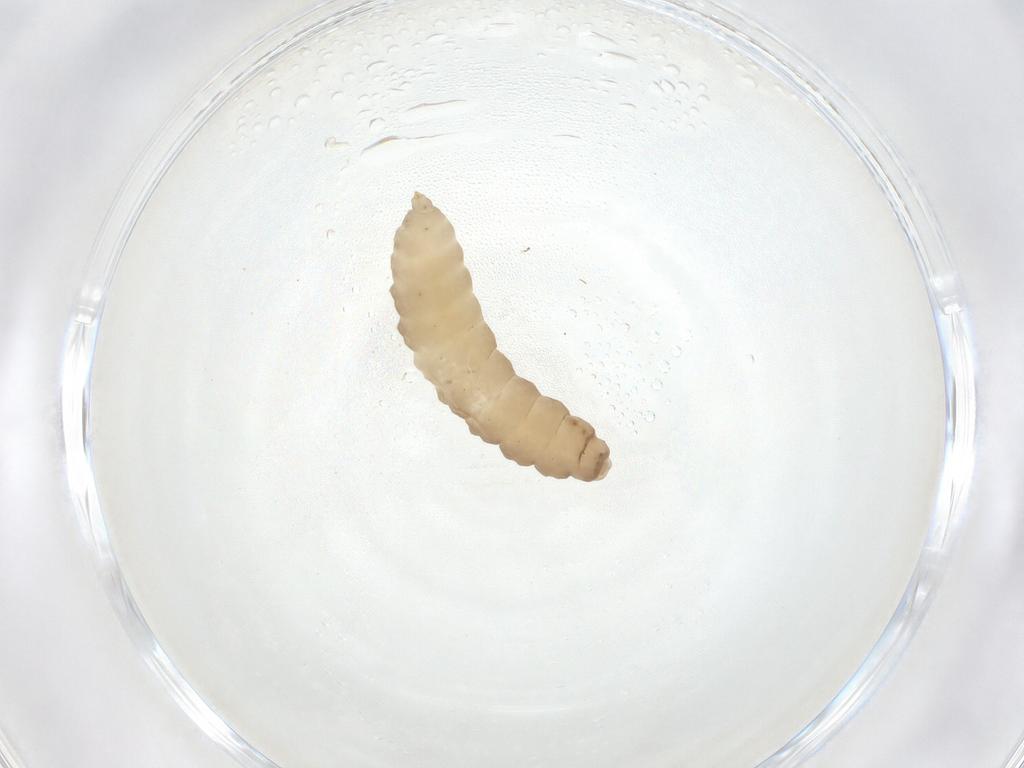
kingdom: Animalia
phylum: Arthropoda
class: Insecta
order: Diptera
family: Cecidomyiidae
